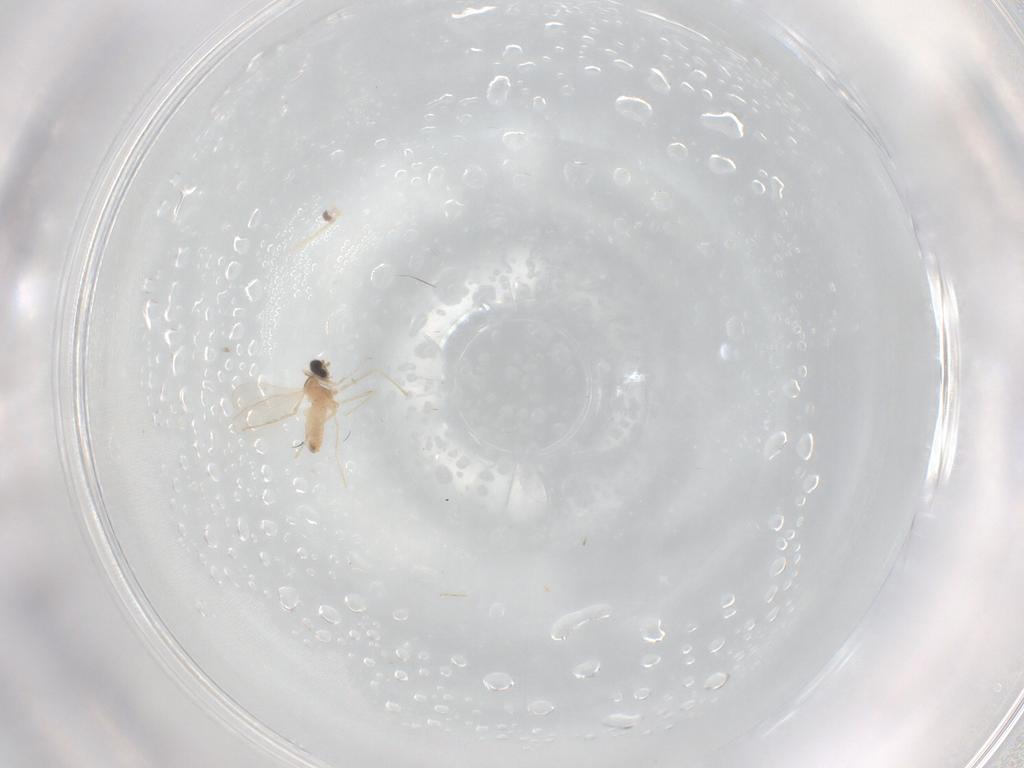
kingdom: Animalia
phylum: Arthropoda
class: Insecta
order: Diptera
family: Cecidomyiidae
